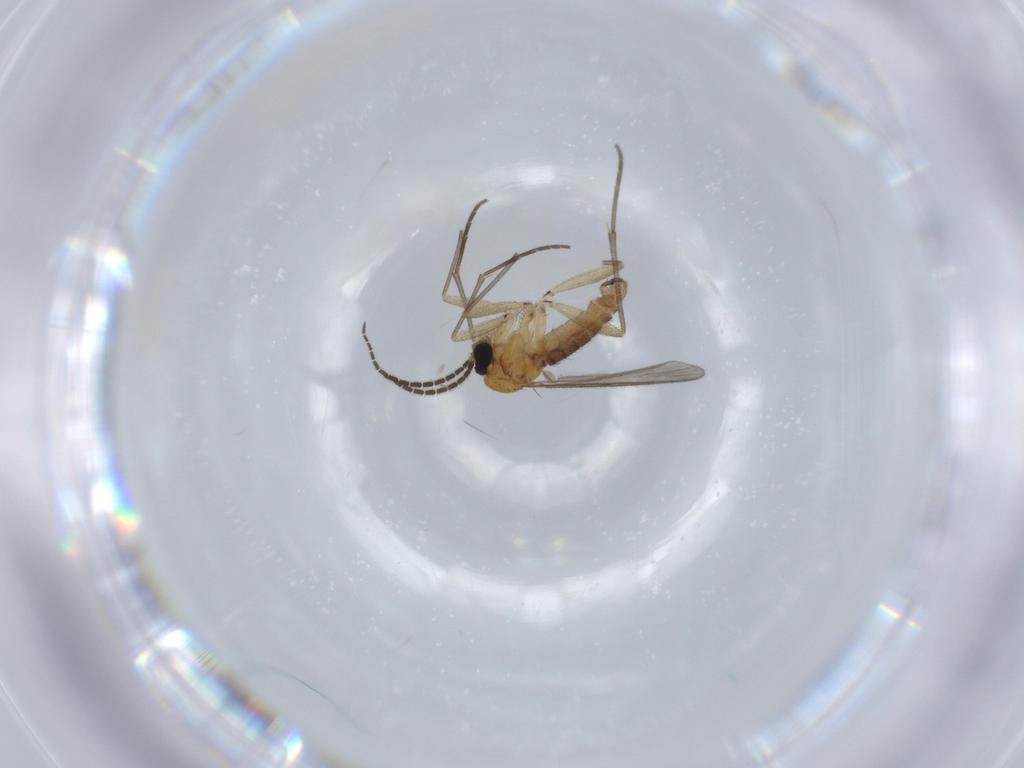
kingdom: Animalia
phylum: Arthropoda
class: Insecta
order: Diptera
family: Sciaridae
